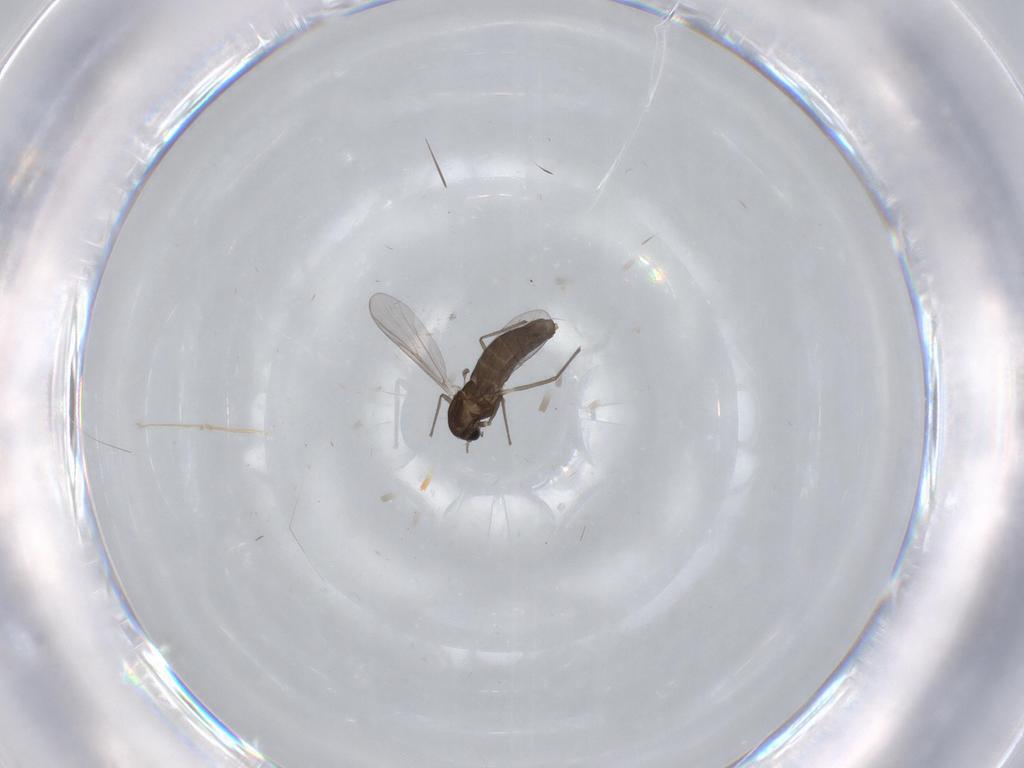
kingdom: Animalia
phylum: Arthropoda
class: Insecta
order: Diptera
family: Chironomidae
